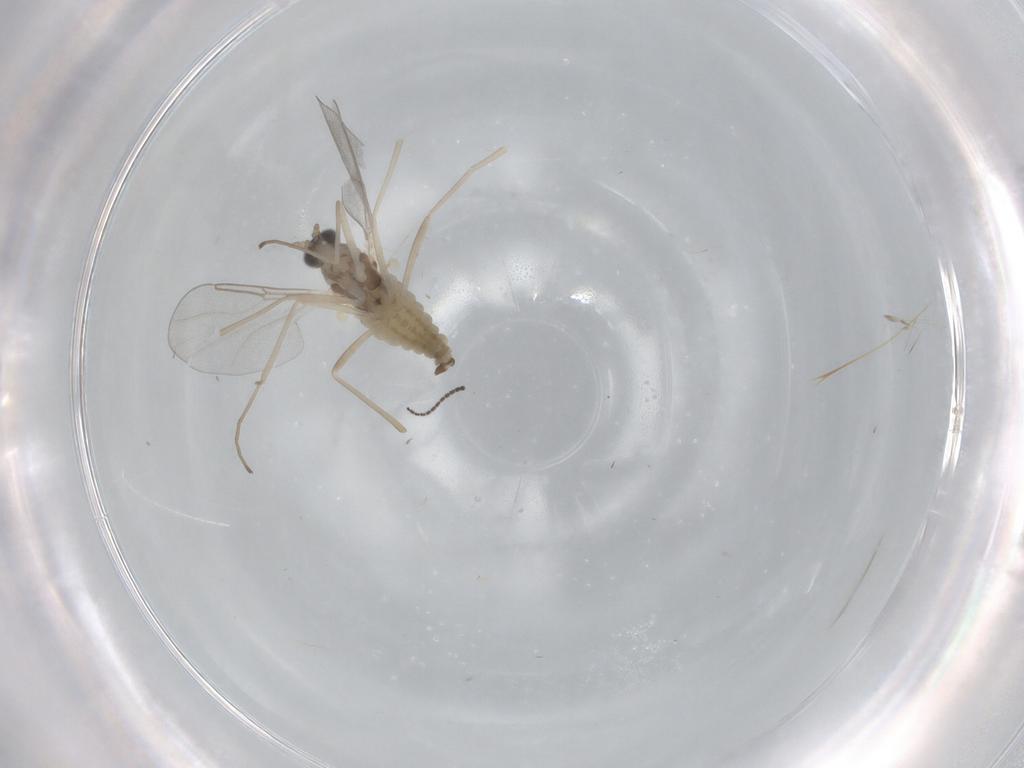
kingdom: Animalia
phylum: Arthropoda
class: Insecta
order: Diptera
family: Cecidomyiidae
